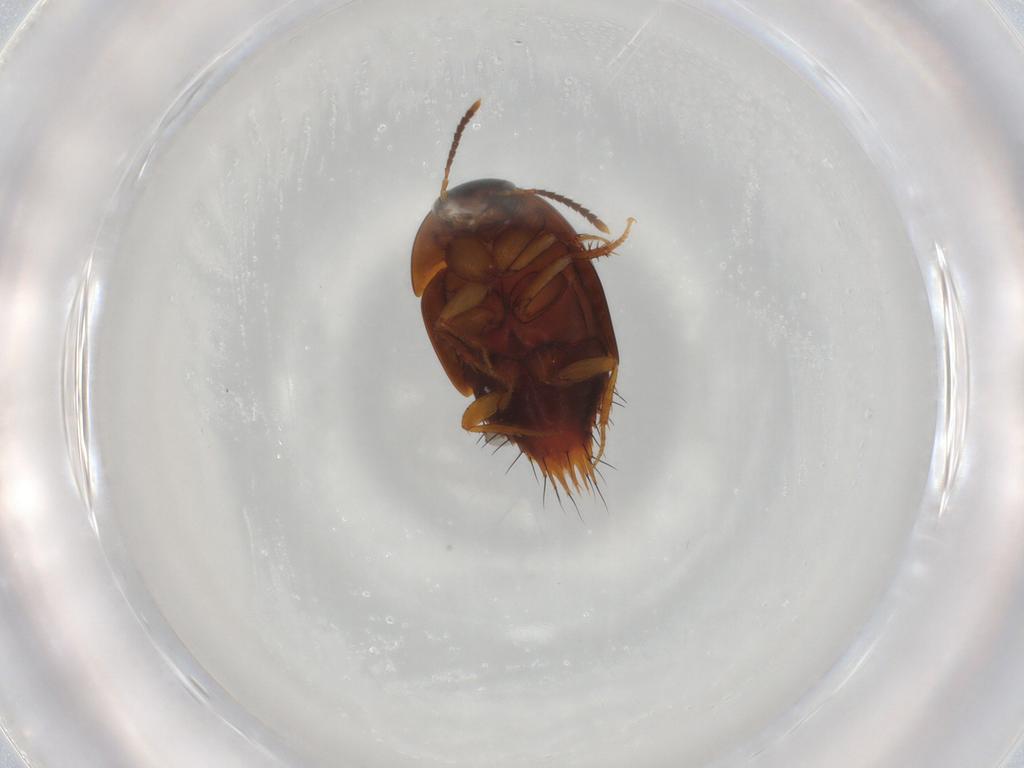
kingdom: Animalia
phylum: Arthropoda
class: Insecta
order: Coleoptera
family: Staphylinidae
